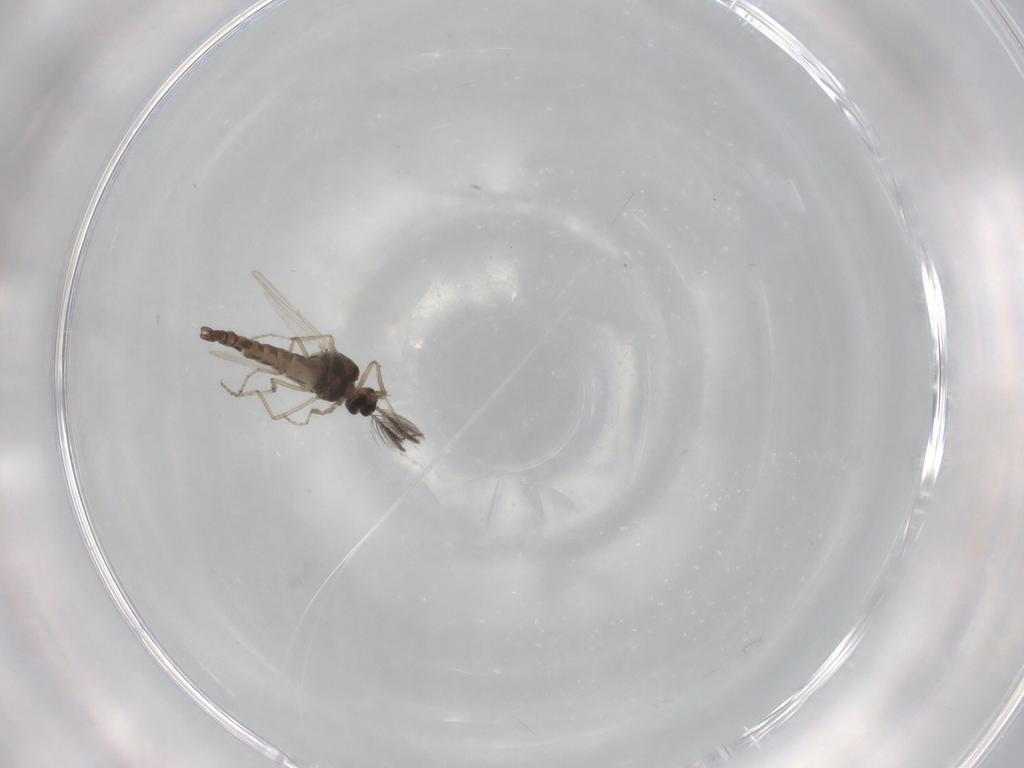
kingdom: Animalia
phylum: Arthropoda
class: Insecta
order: Diptera
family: Ceratopogonidae
